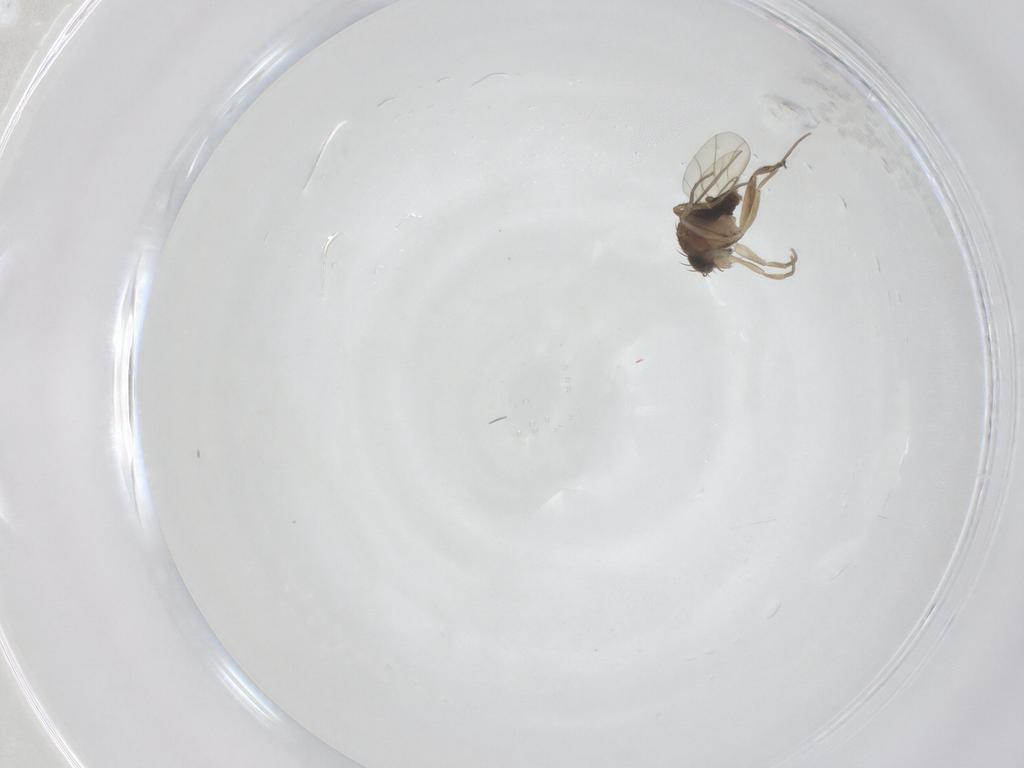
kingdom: Animalia
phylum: Arthropoda
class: Insecta
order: Diptera
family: Phoridae
